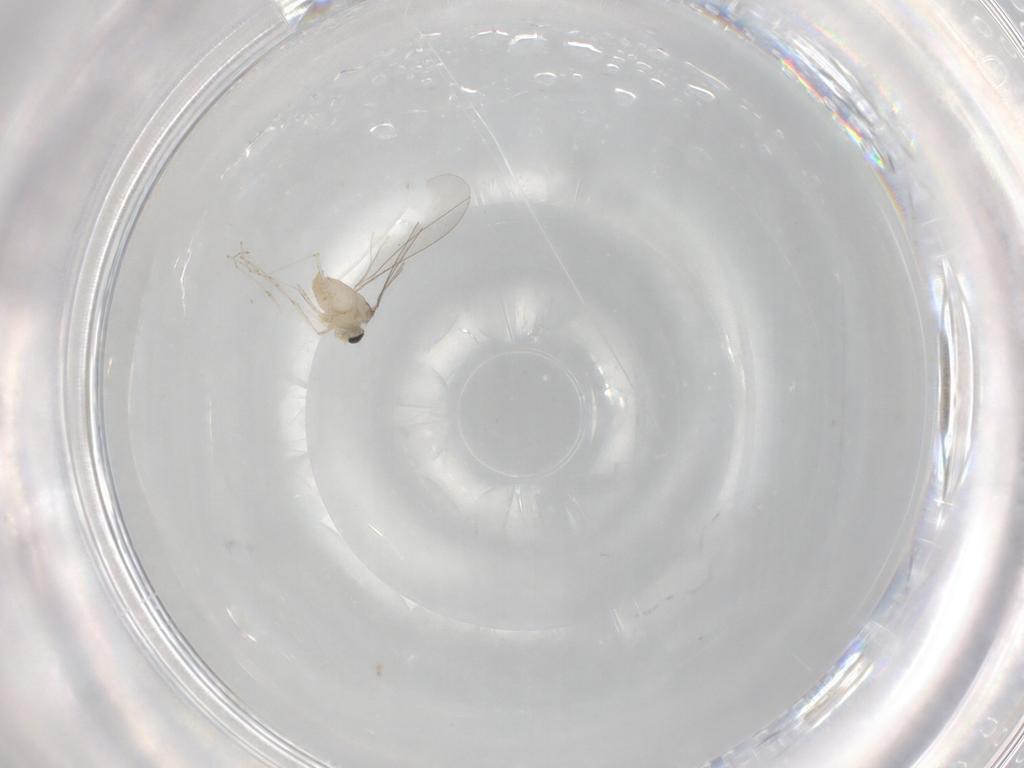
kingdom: Animalia
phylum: Arthropoda
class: Insecta
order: Diptera
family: Cecidomyiidae
